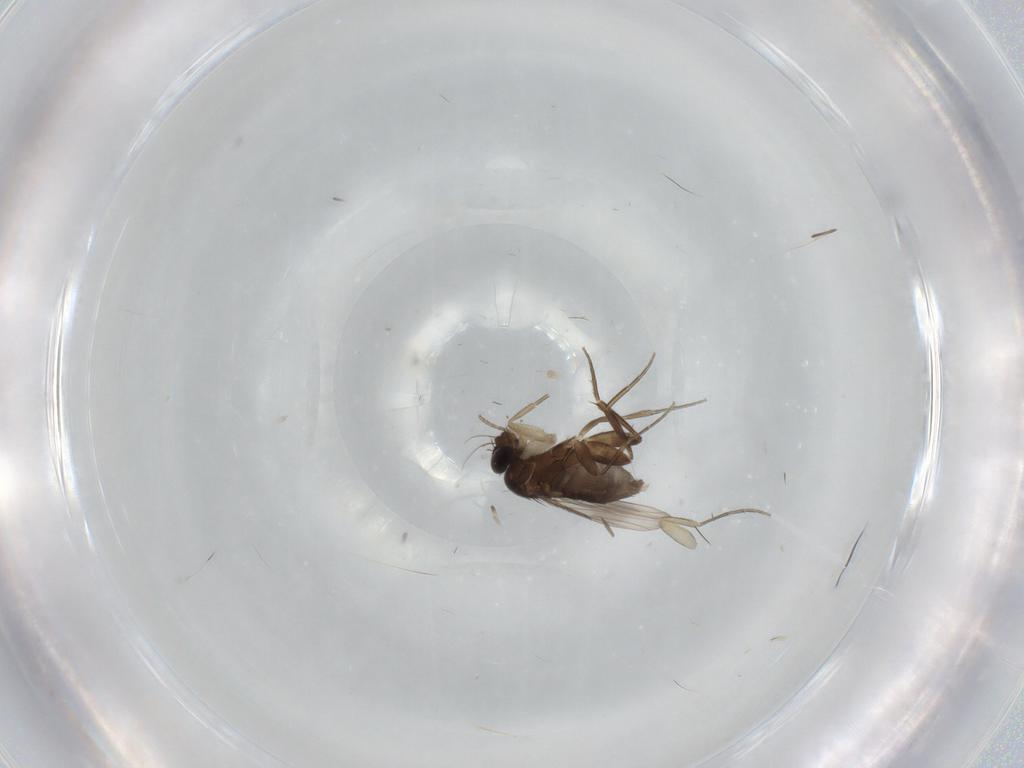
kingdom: Animalia
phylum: Arthropoda
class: Insecta
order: Diptera
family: Phoridae
